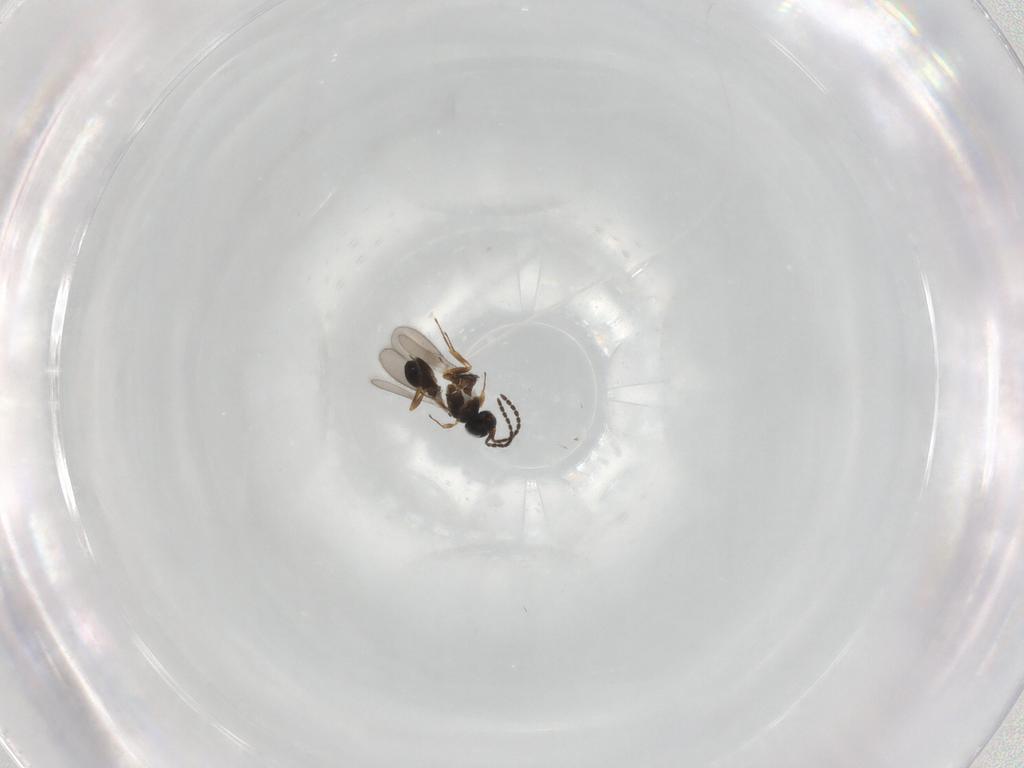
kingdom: Animalia
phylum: Arthropoda
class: Insecta
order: Hymenoptera
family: Scelionidae
